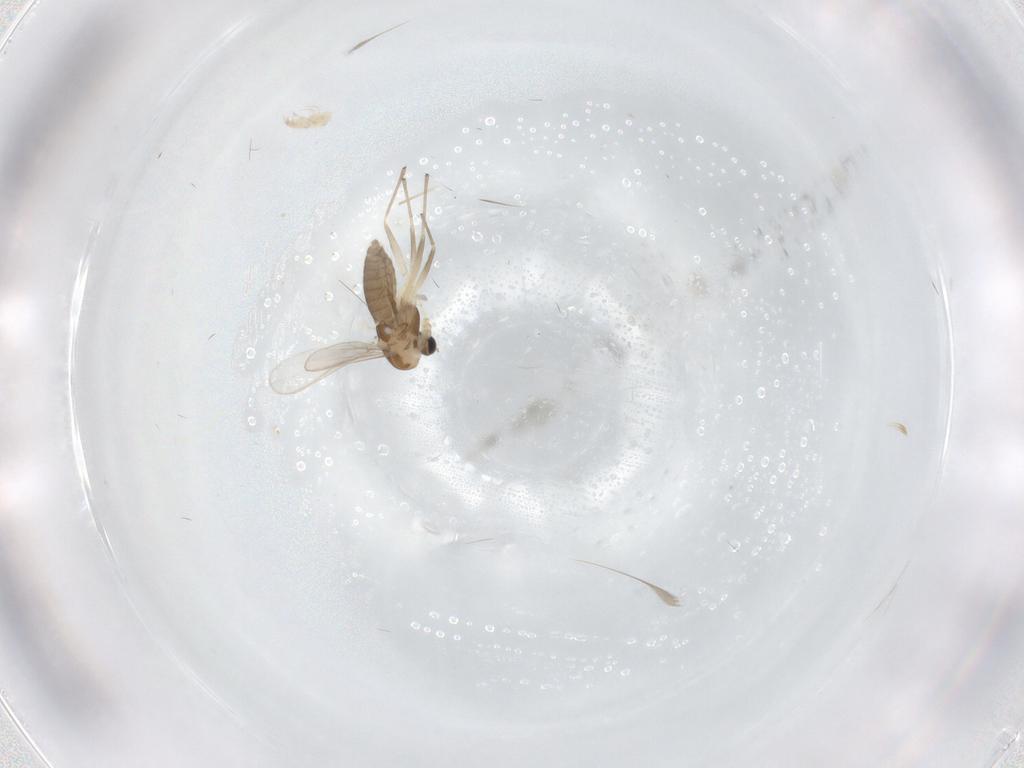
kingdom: Animalia
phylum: Arthropoda
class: Insecta
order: Diptera
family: Chironomidae
